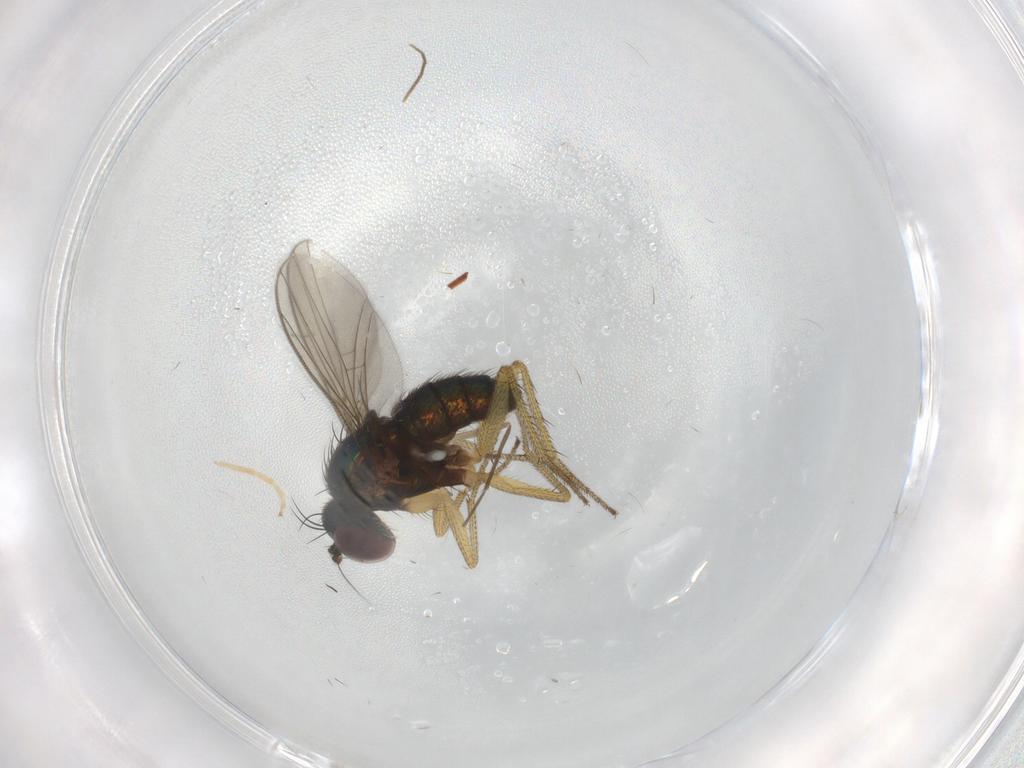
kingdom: Animalia
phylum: Arthropoda
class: Insecta
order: Diptera
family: Dolichopodidae
